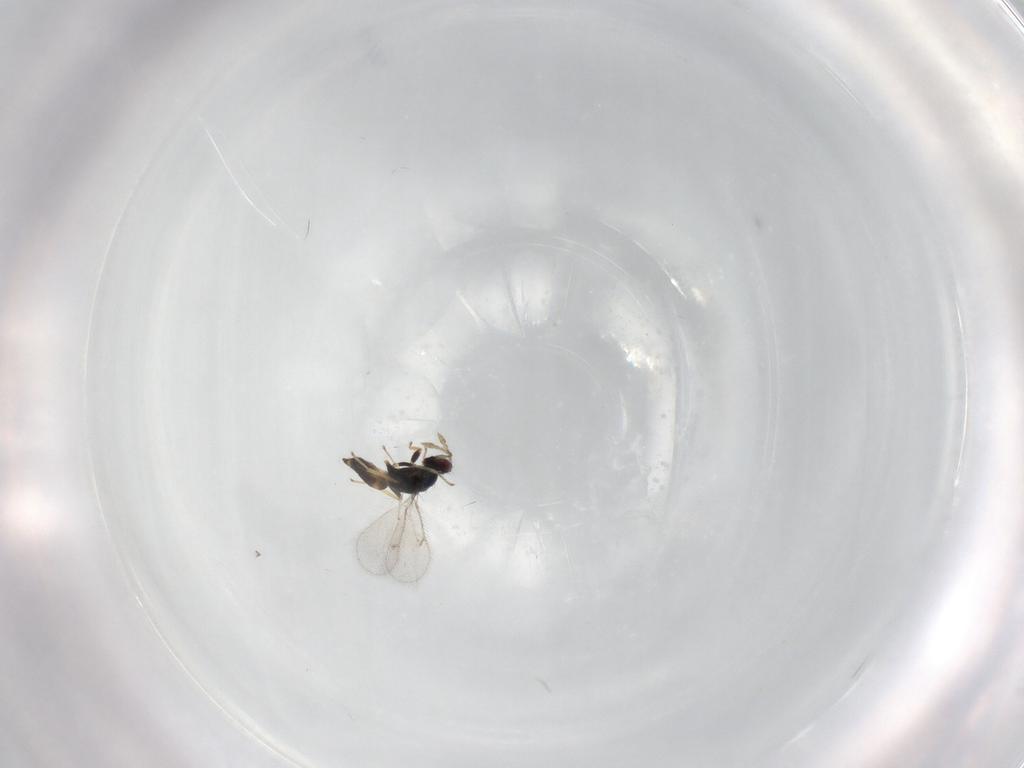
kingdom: Animalia
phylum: Arthropoda
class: Insecta
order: Hymenoptera
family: Eulophidae
